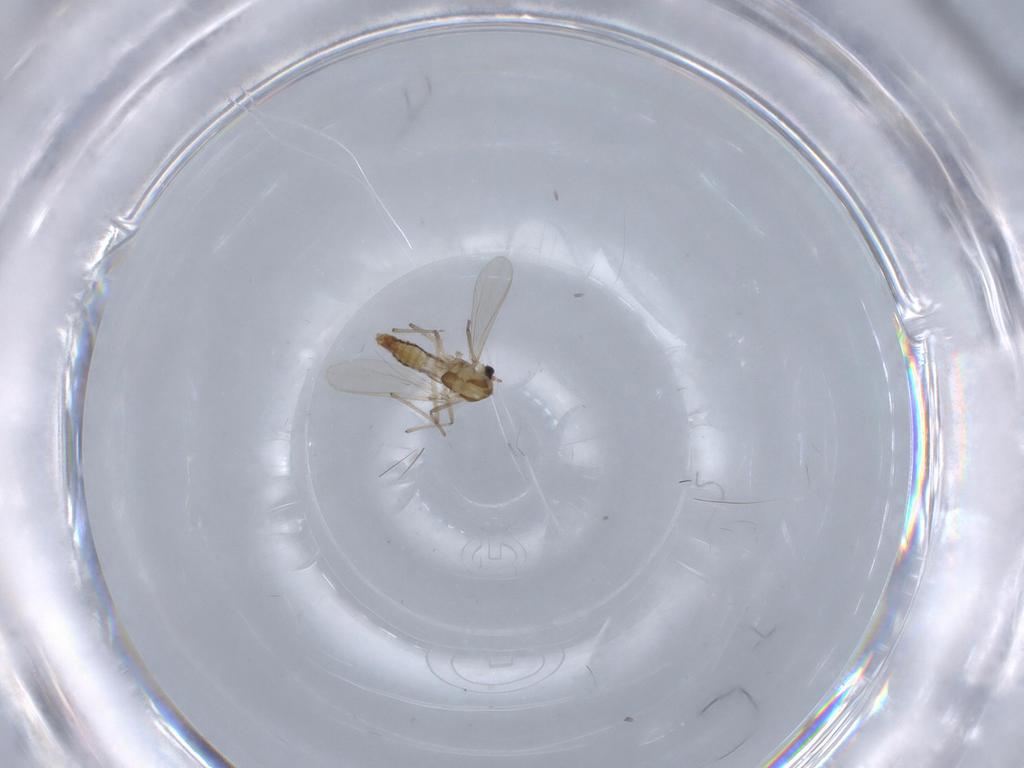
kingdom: Animalia
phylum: Arthropoda
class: Insecta
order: Diptera
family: Chironomidae
